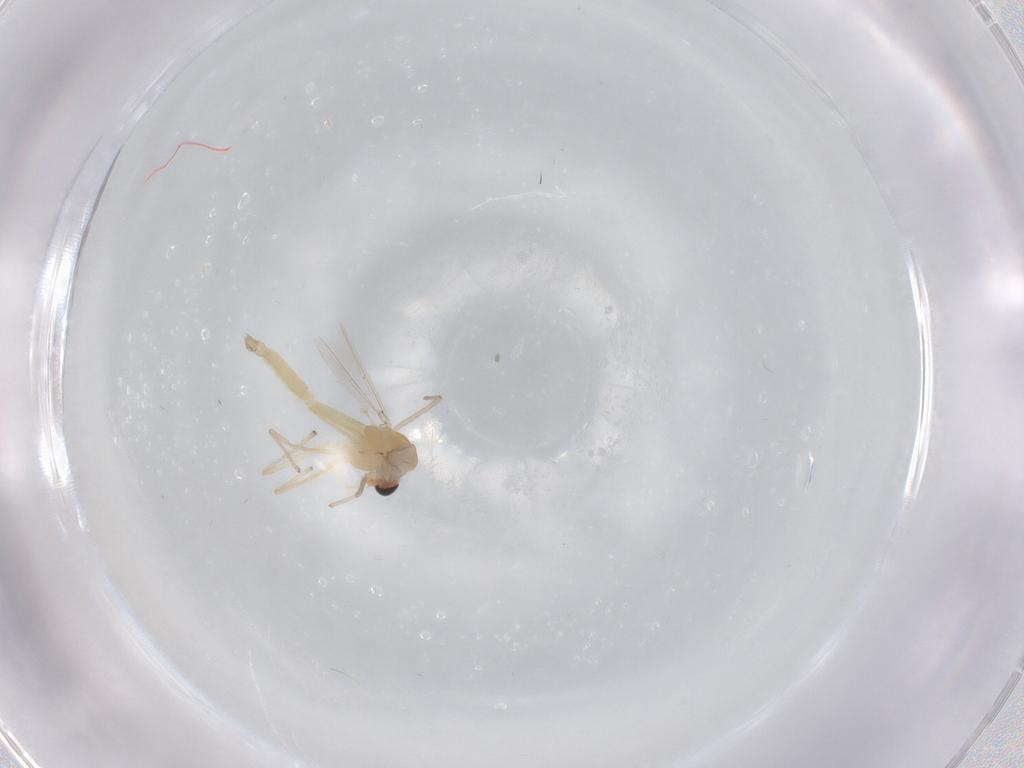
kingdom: Animalia
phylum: Arthropoda
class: Insecta
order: Diptera
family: Chironomidae
